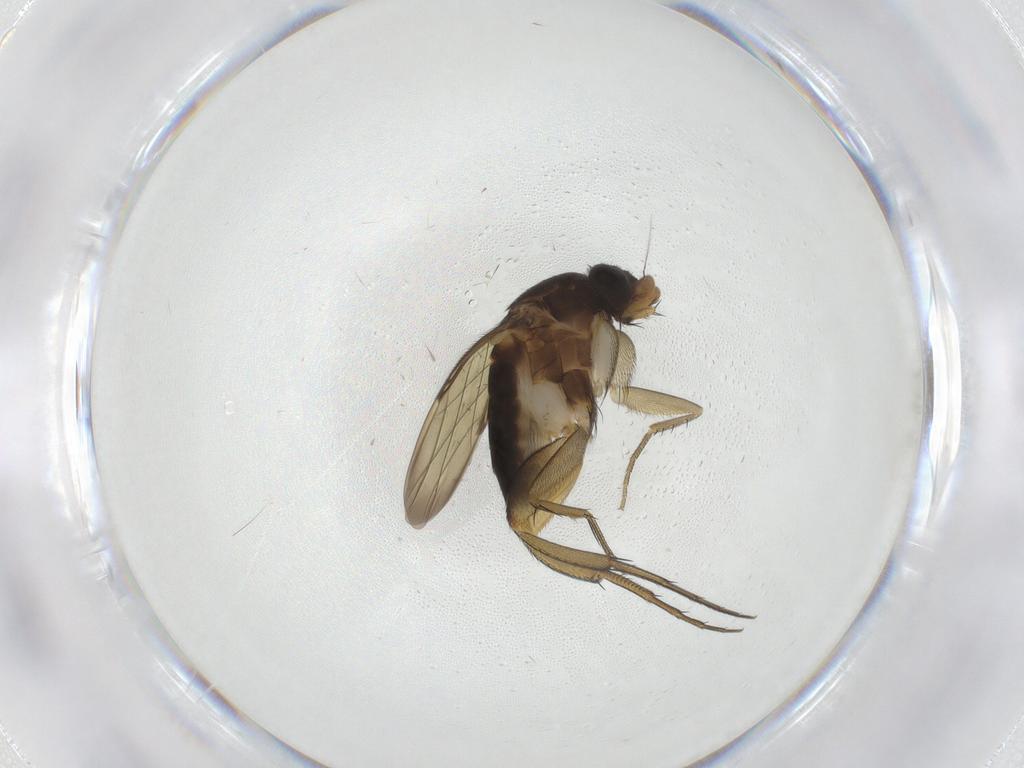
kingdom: Animalia
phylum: Arthropoda
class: Insecta
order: Diptera
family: Phoridae
